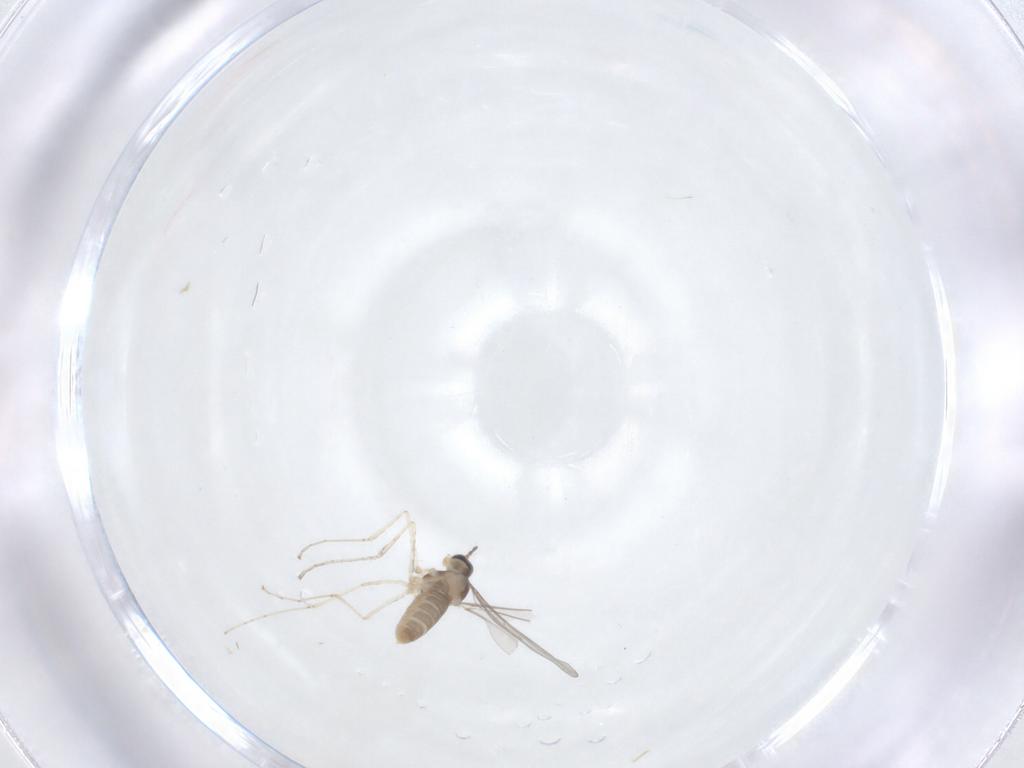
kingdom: Animalia
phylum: Arthropoda
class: Insecta
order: Diptera
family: Cecidomyiidae
